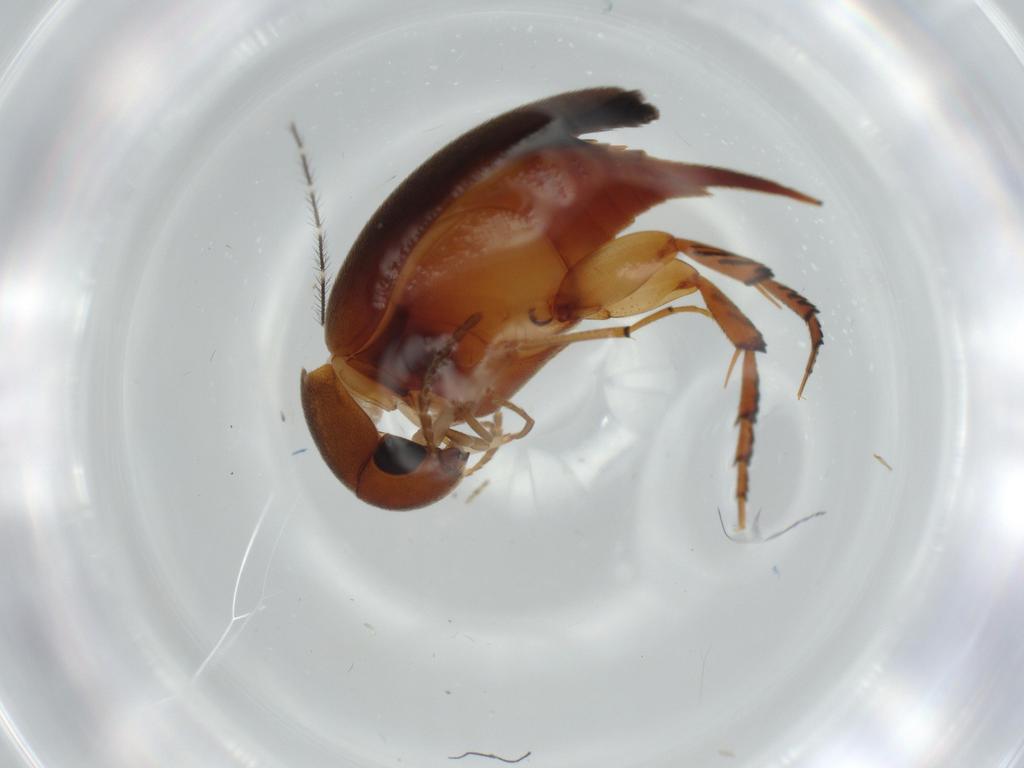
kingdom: Animalia
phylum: Arthropoda
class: Insecta
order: Coleoptera
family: Mordellidae
